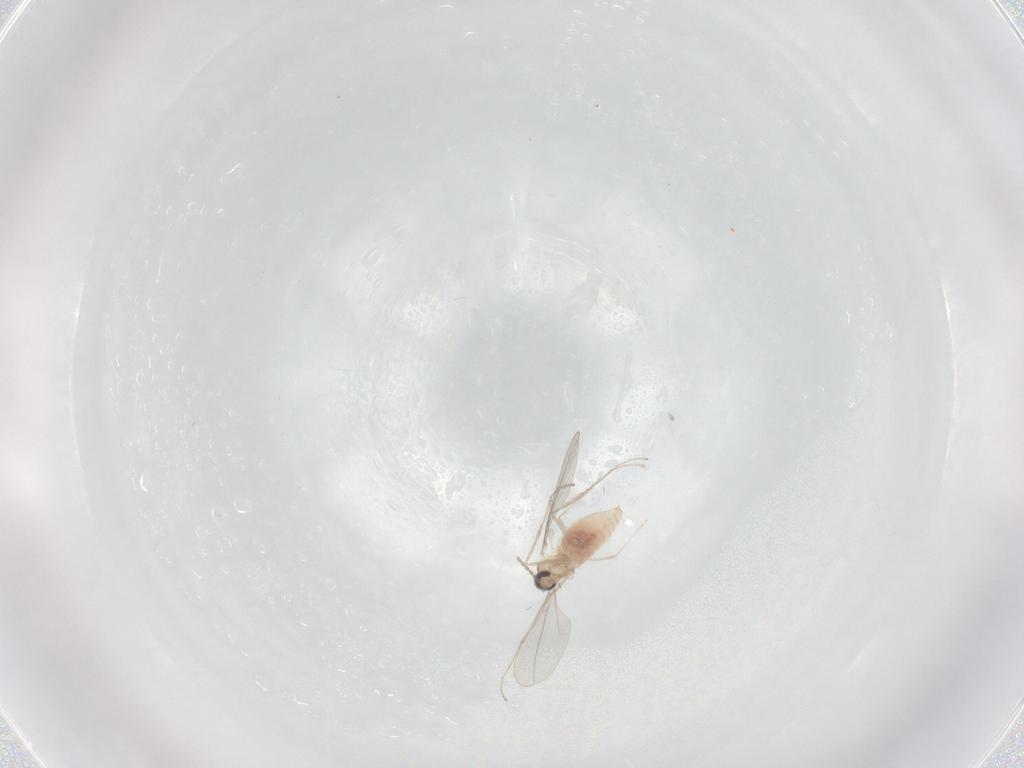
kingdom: Animalia
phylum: Arthropoda
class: Insecta
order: Diptera
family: Cecidomyiidae
